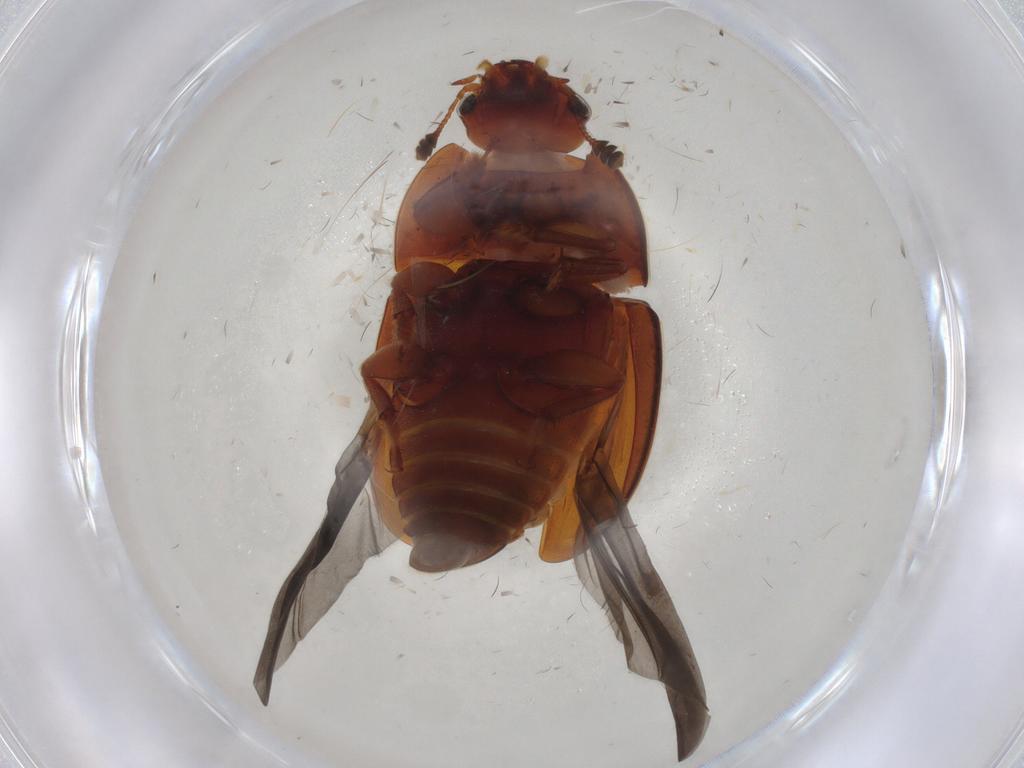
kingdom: Animalia
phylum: Arthropoda
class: Insecta
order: Coleoptera
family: Nitidulidae
